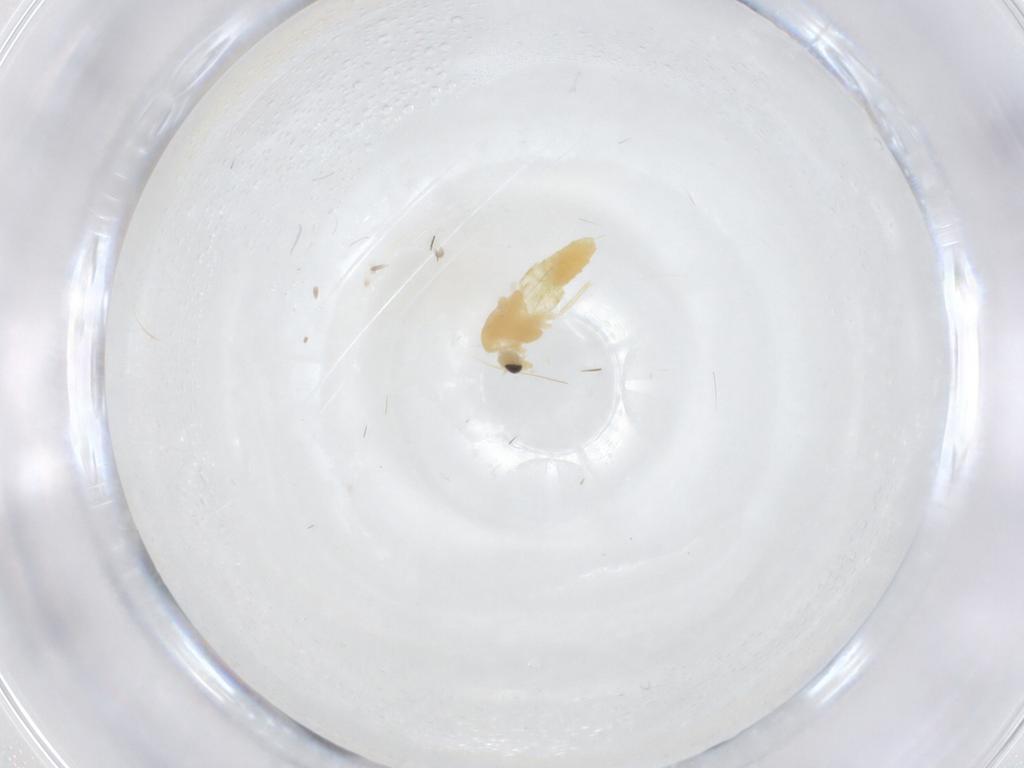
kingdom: Animalia
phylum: Arthropoda
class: Insecta
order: Diptera
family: Chironomidae
